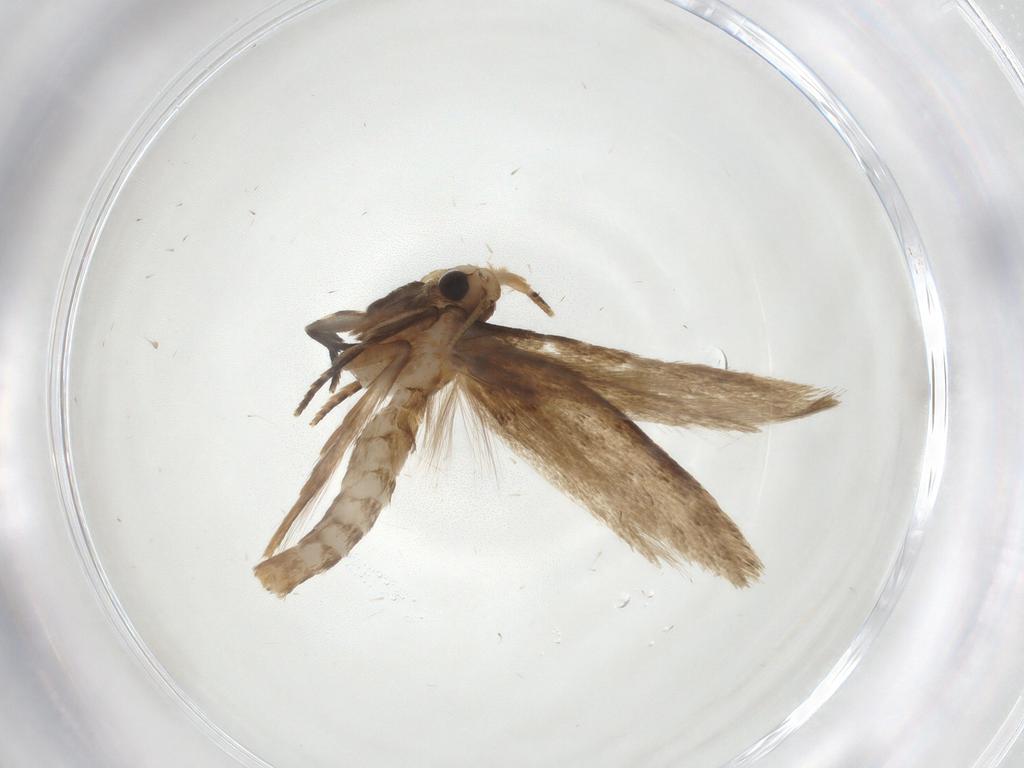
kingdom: Animalia
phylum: Arthropoda
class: Insecta
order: Lepidoptera
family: Tineidae
